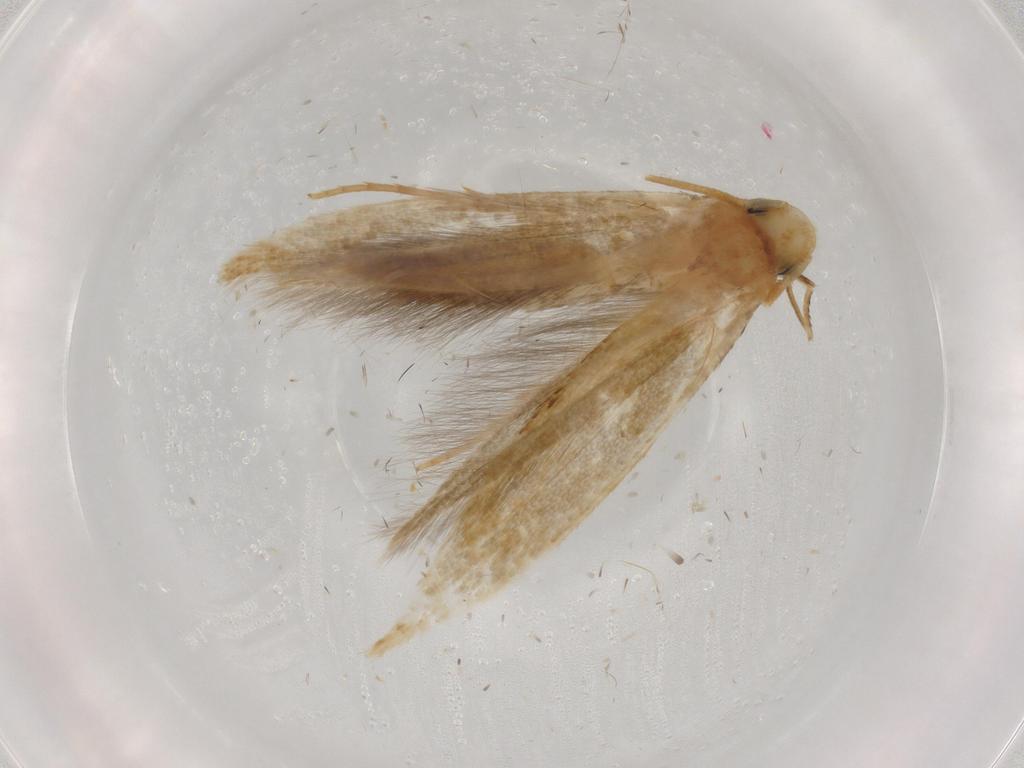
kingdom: Animalia
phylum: Arthropoda
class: Insecta
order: Lepidoptera
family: Tineidae
